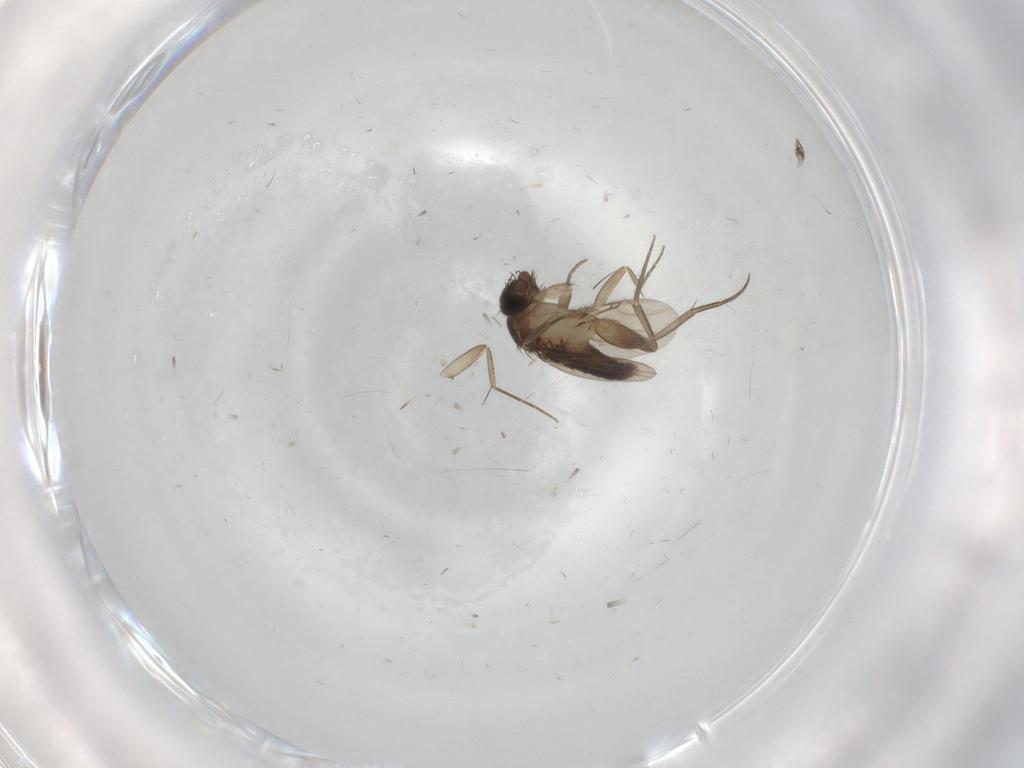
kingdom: Animalia
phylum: Arthropoda
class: Insecta
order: Diptera
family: Phoridae
